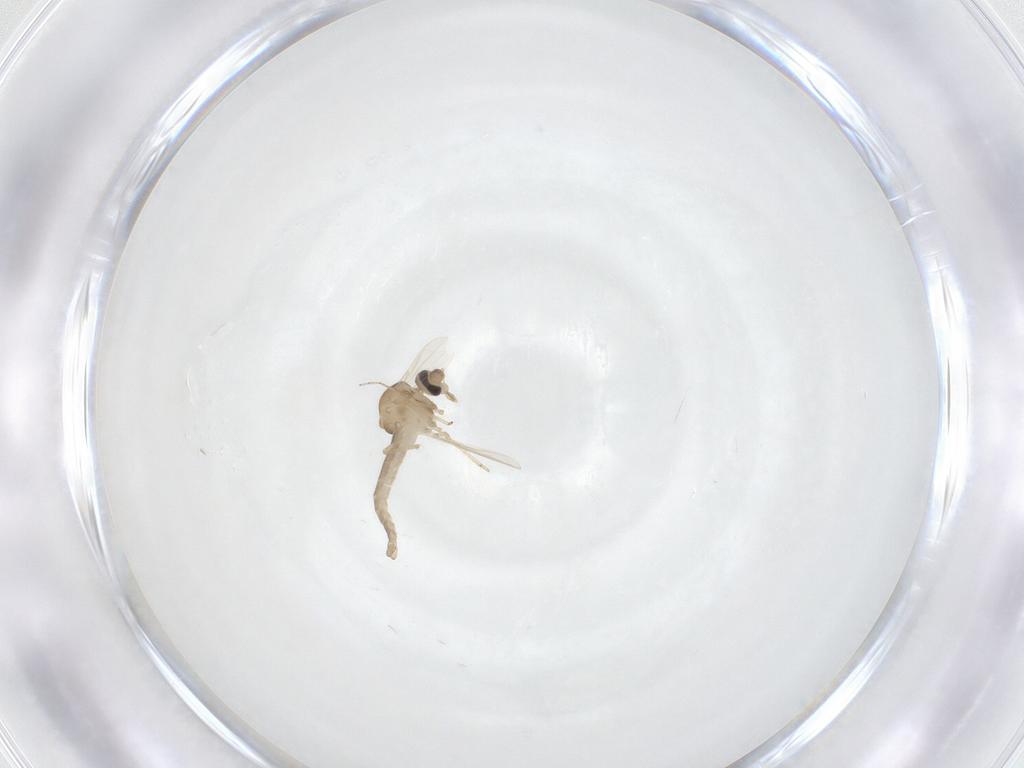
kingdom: Animalia
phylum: Arthropoda
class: Insecta
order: Diptera
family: Ceratopogonidae
